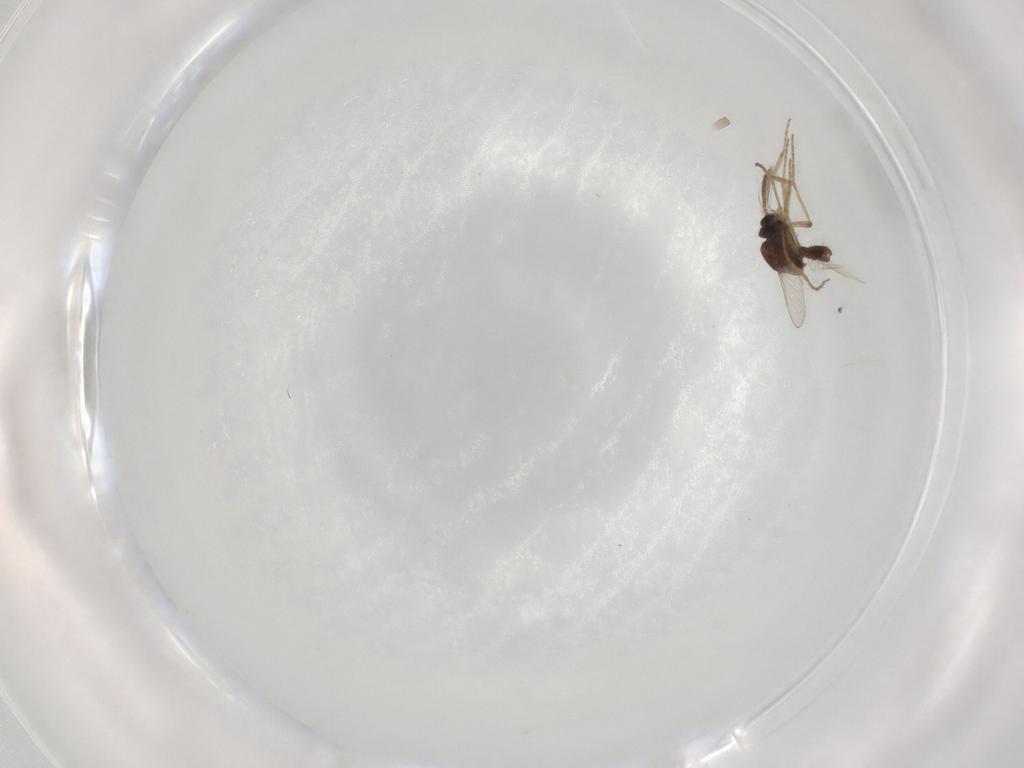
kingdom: Animalia
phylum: Arthropoda
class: Insecta
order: Diptera
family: Ceratopogonidae
